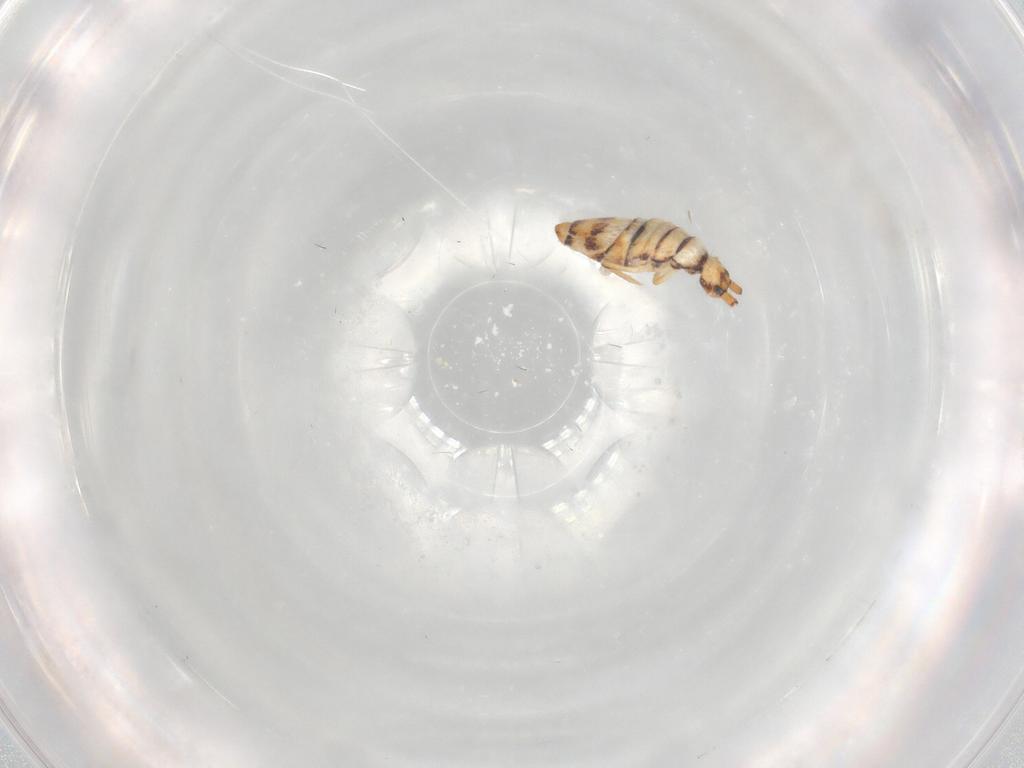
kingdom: Animalia
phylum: Arthropoda
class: Collembola
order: Entomobryomorpha
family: Entomobryidae
